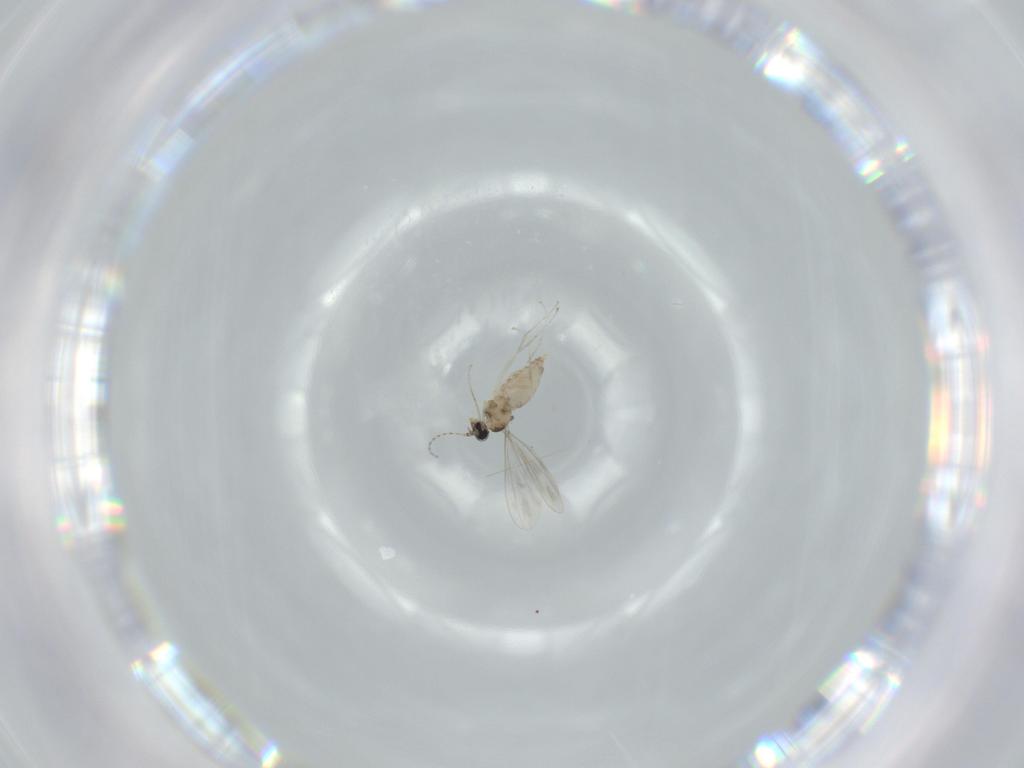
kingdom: Animalia
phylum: Arthropoda
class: Insecta
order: Diptera
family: Cecidomyiidae
